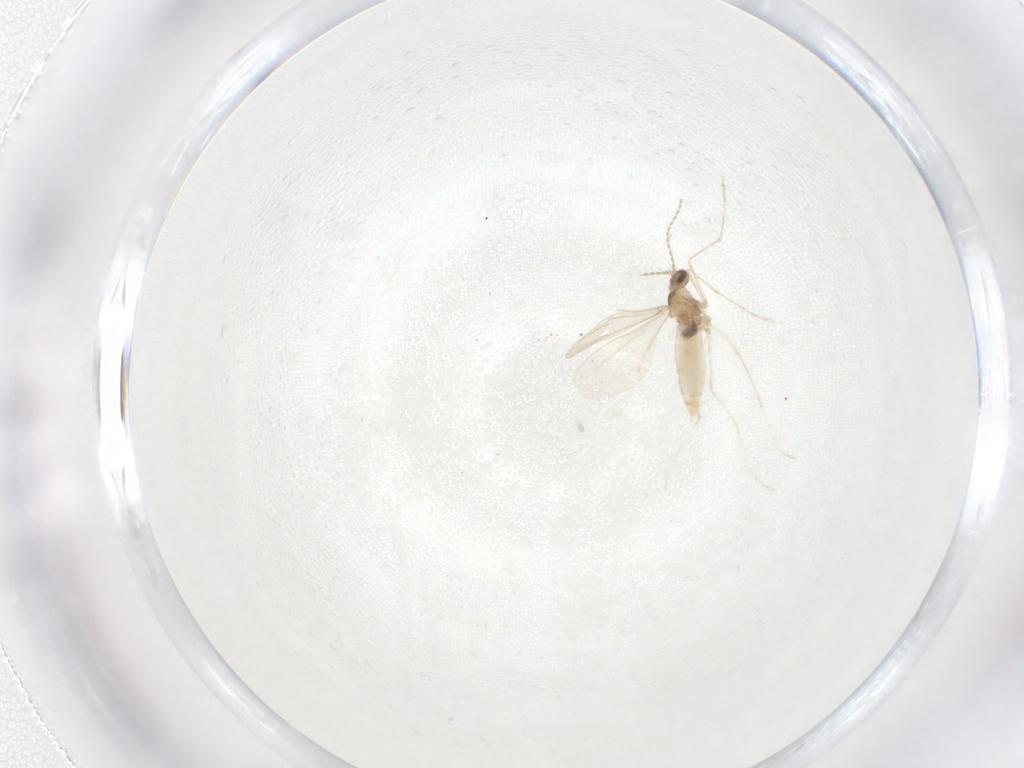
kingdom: Animalia
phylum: Arthropoda
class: Insecta
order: Diptera
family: Cecidomyiidae
